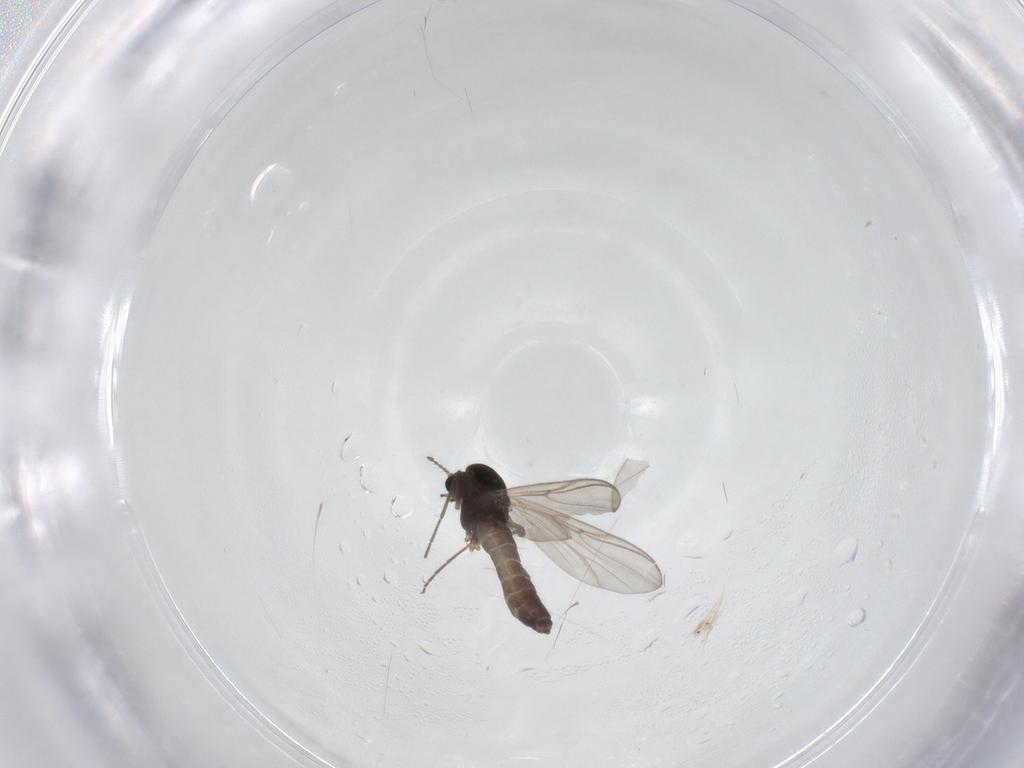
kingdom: Animalia
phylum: Arthropoda
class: Insecta
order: Diptera
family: Chironomidae
